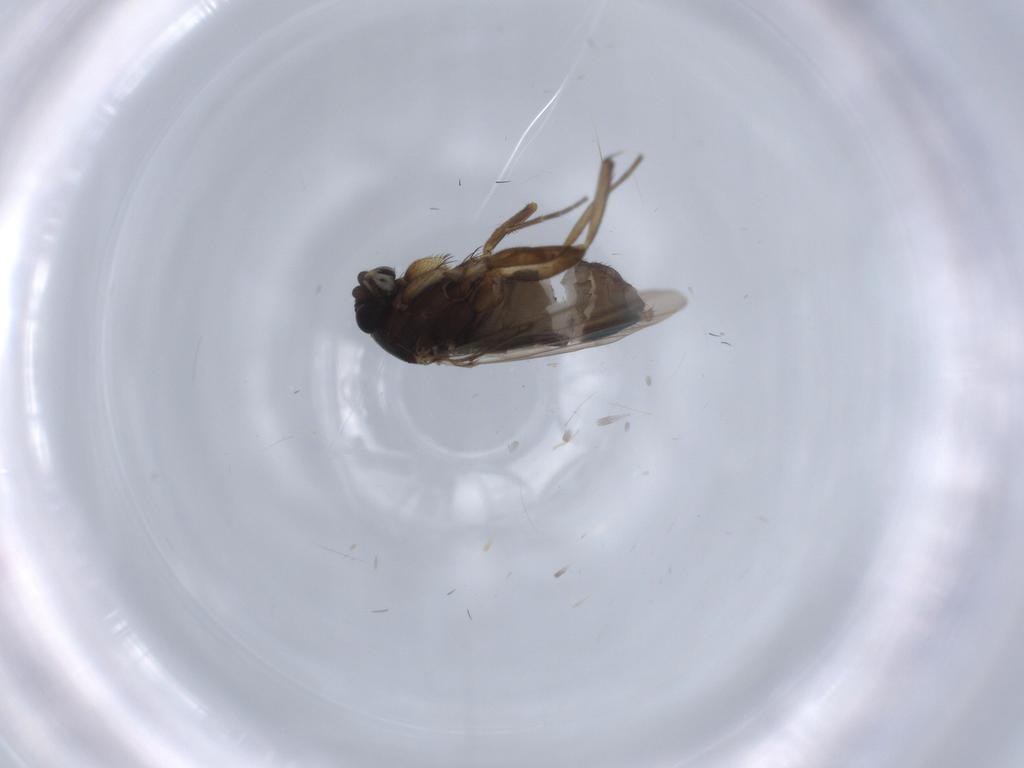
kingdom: Animalia
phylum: Arthropoda
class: Insecta
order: Diptera
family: Phoridae
